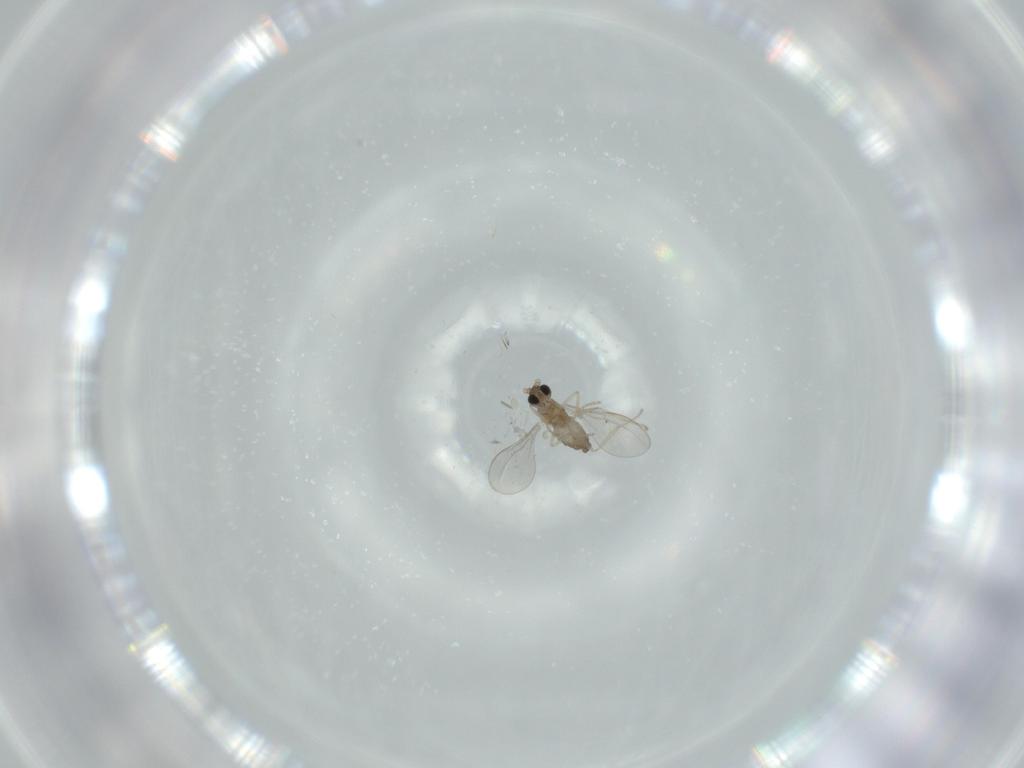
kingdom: Animalia
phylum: Arthropoda
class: Insecta
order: Diptera
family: Cecidomyiidae
